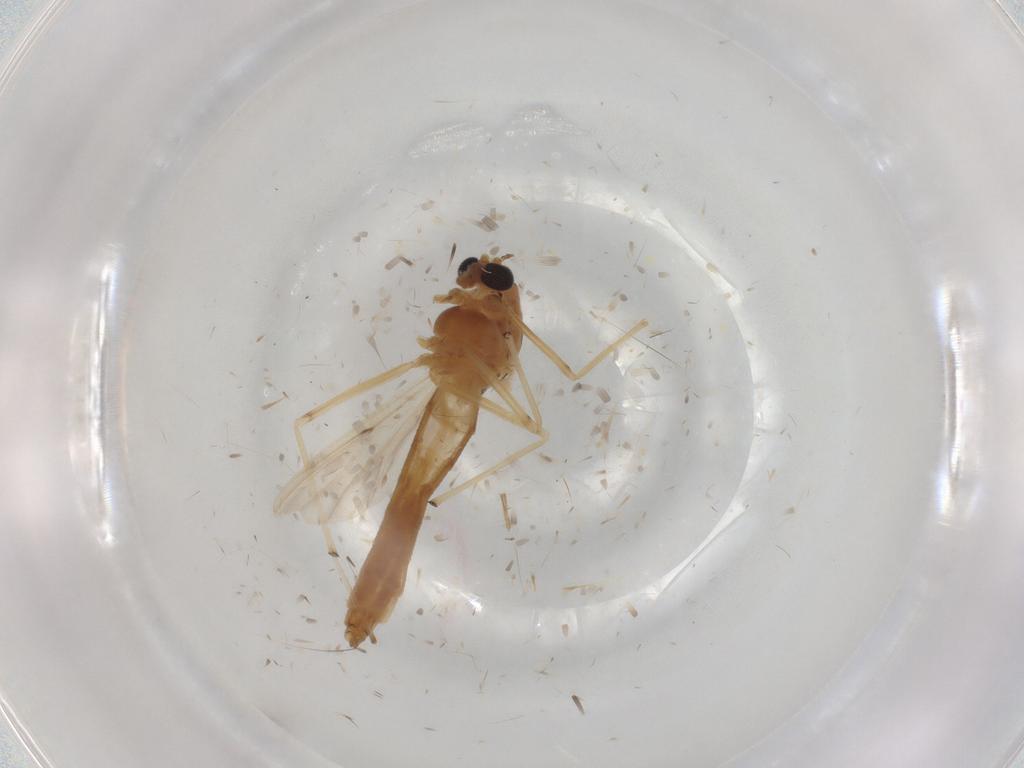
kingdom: Animalia
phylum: Arthropoda
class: Insecta
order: Diptera
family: Chironomidae
